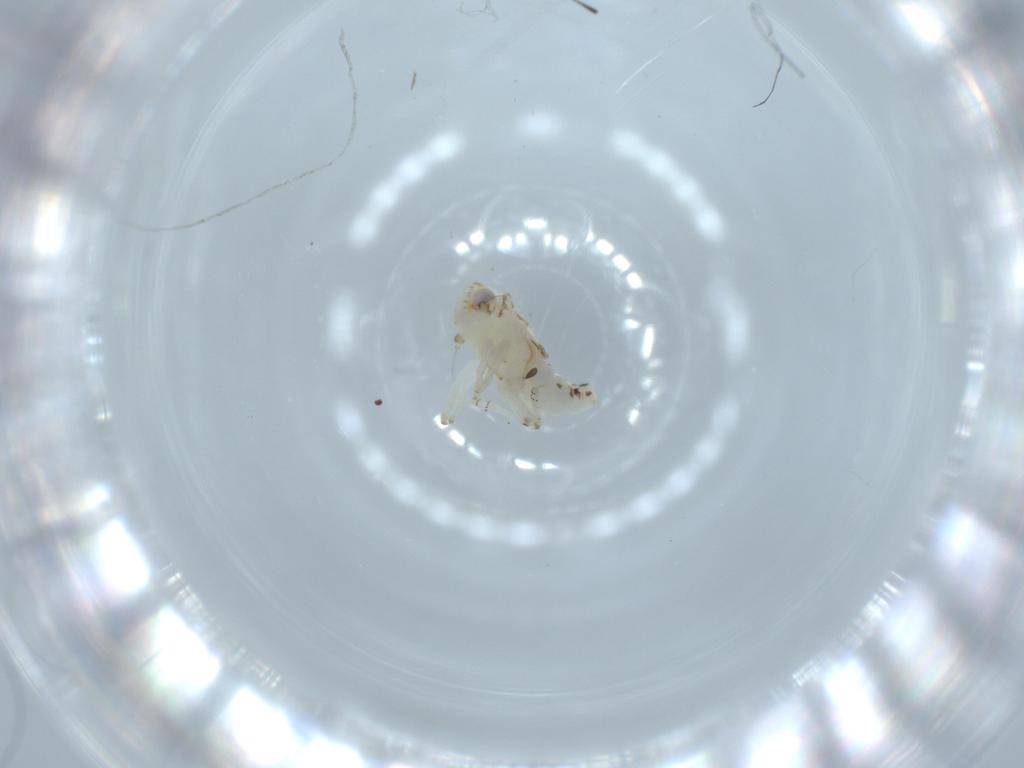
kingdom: Animalia
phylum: Arthropoda
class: Insecta
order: Hemiptera
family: Nogodinidae
